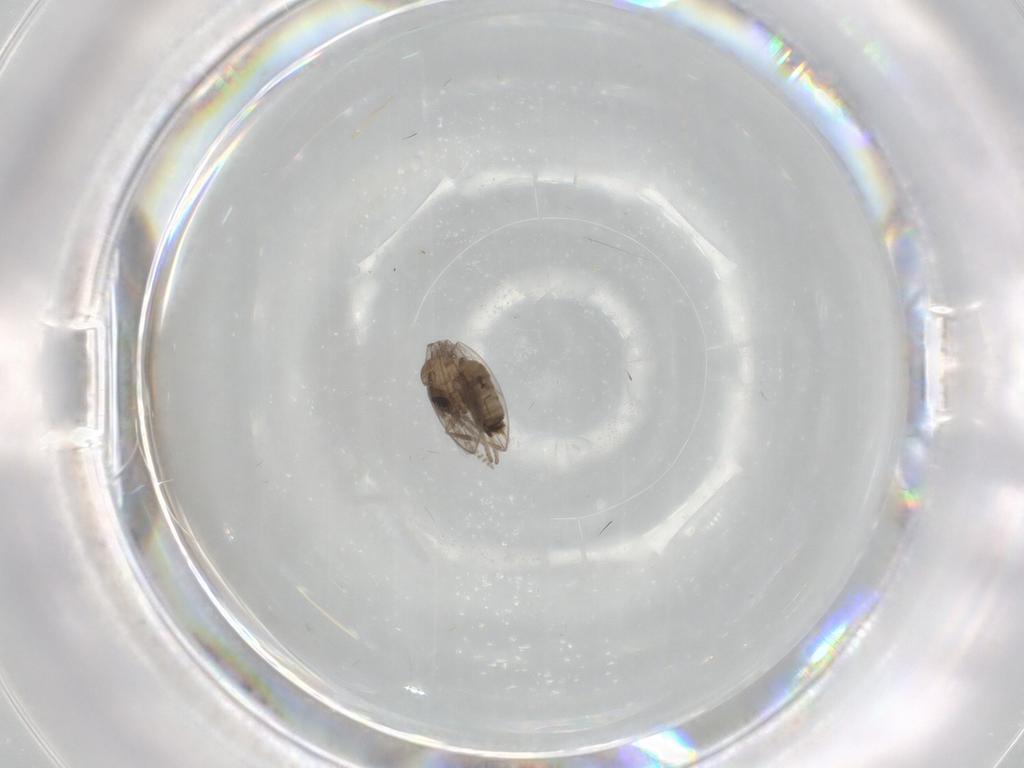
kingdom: Animalia
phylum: Arthropoda
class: Insecta
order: Diptera
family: Psychodidae
